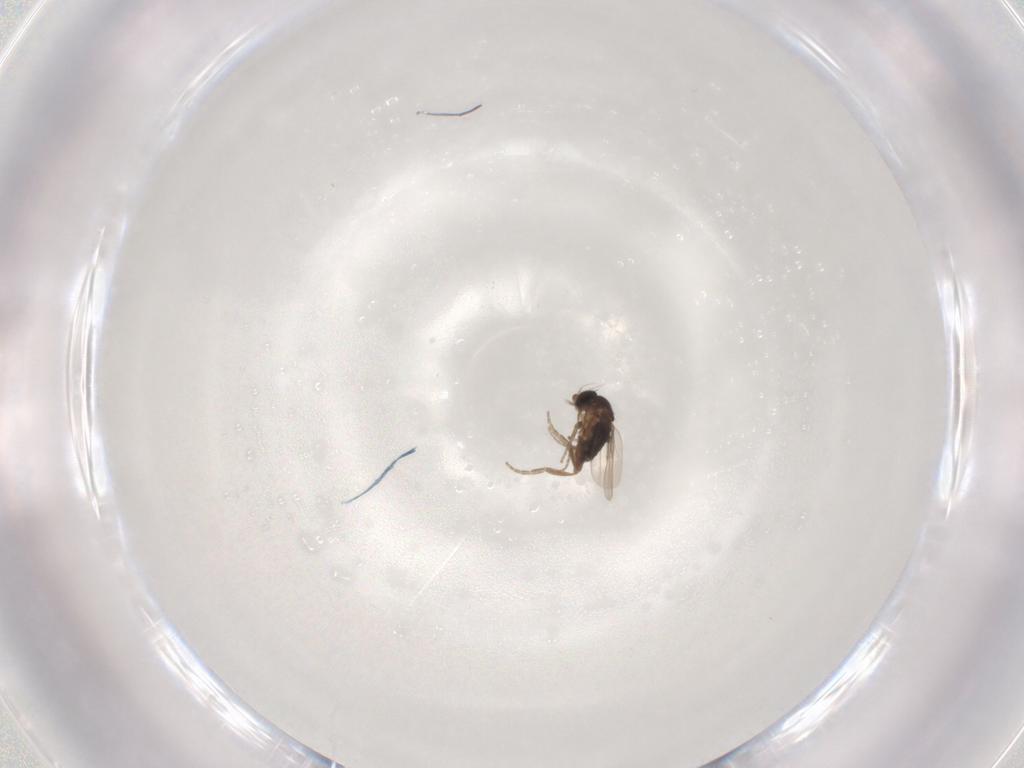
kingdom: Animalia
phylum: Arthropoda
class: Insecta
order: Diptera
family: Phoridae
